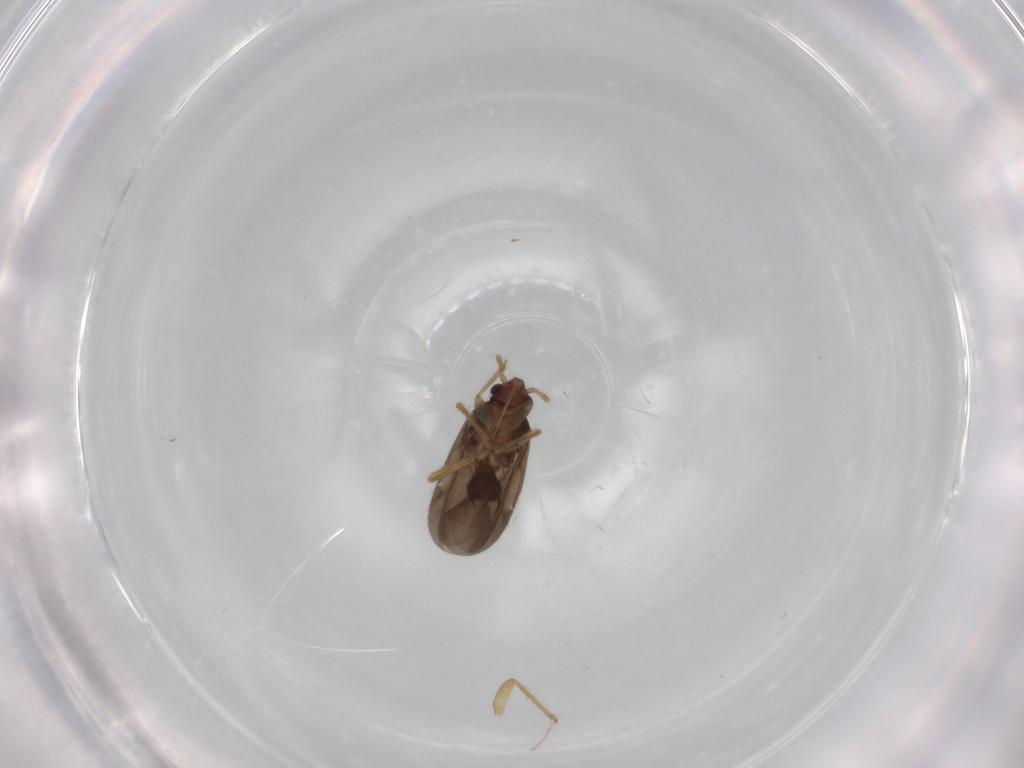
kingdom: Animalia
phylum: Arthropoda
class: Insecta
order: Hemiptera
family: Ceratocombidae
